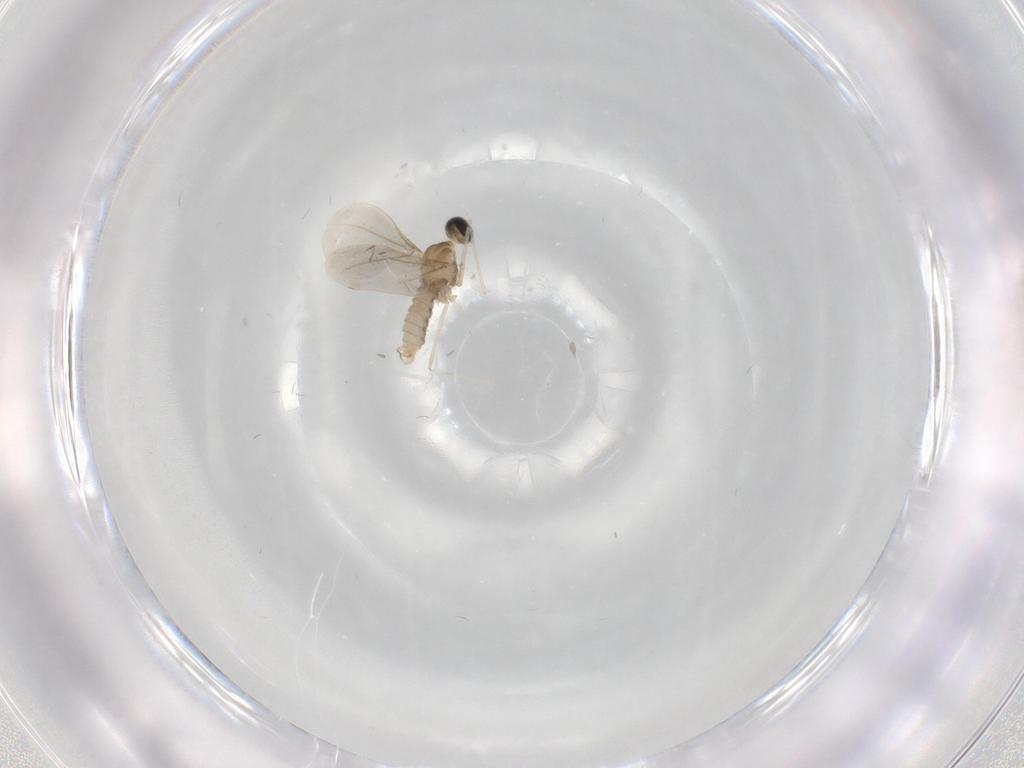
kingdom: Animalia
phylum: Arthropoda
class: Insecta
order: Diptera
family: Cecidomyiidae
